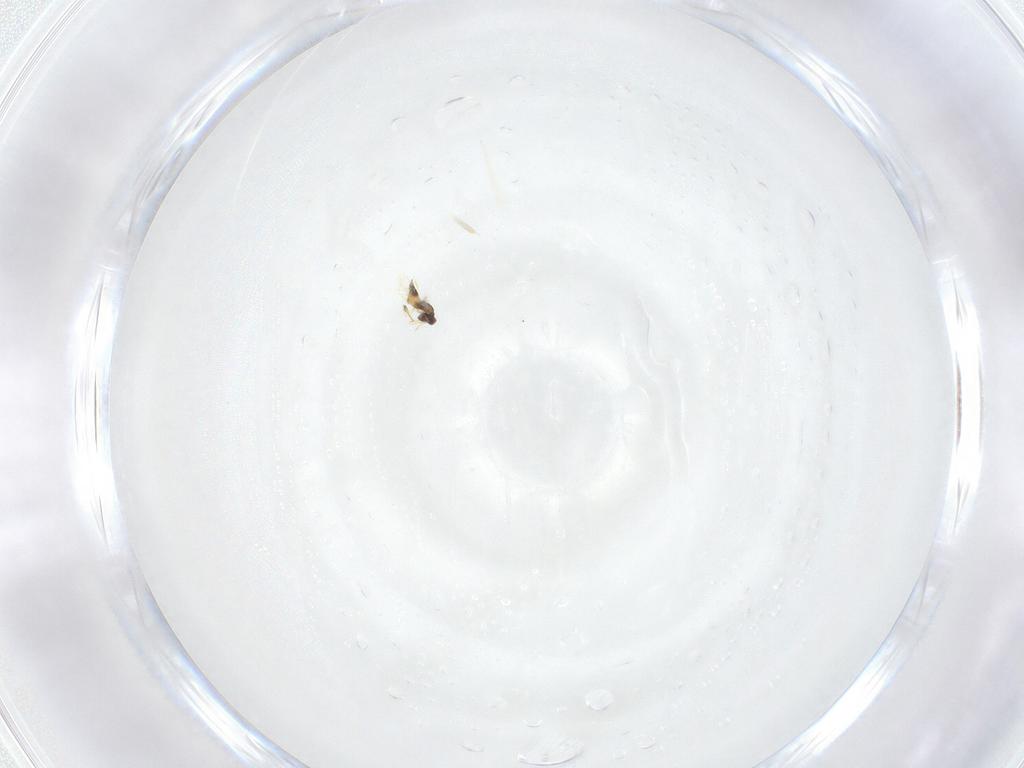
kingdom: Animalia
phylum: Arthropoda
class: Insecta
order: Hymenoptera
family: Mymaridae
